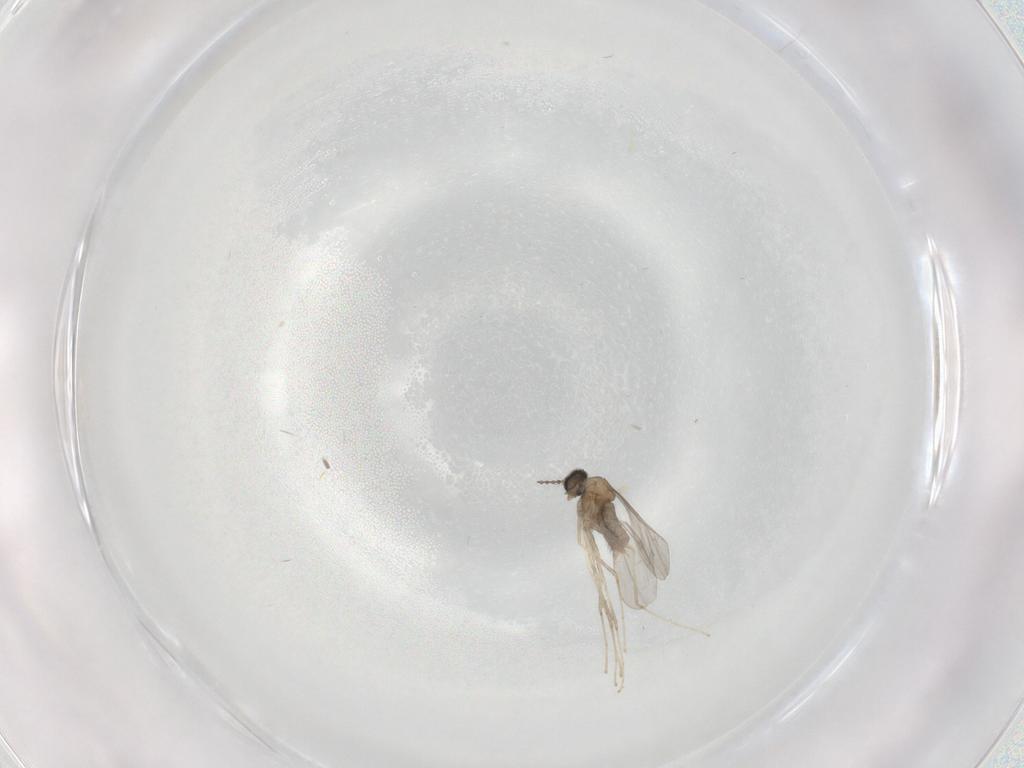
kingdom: Animalia
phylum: Arthropoda
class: Insecta
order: Diptera
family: Cecidomyiidae
